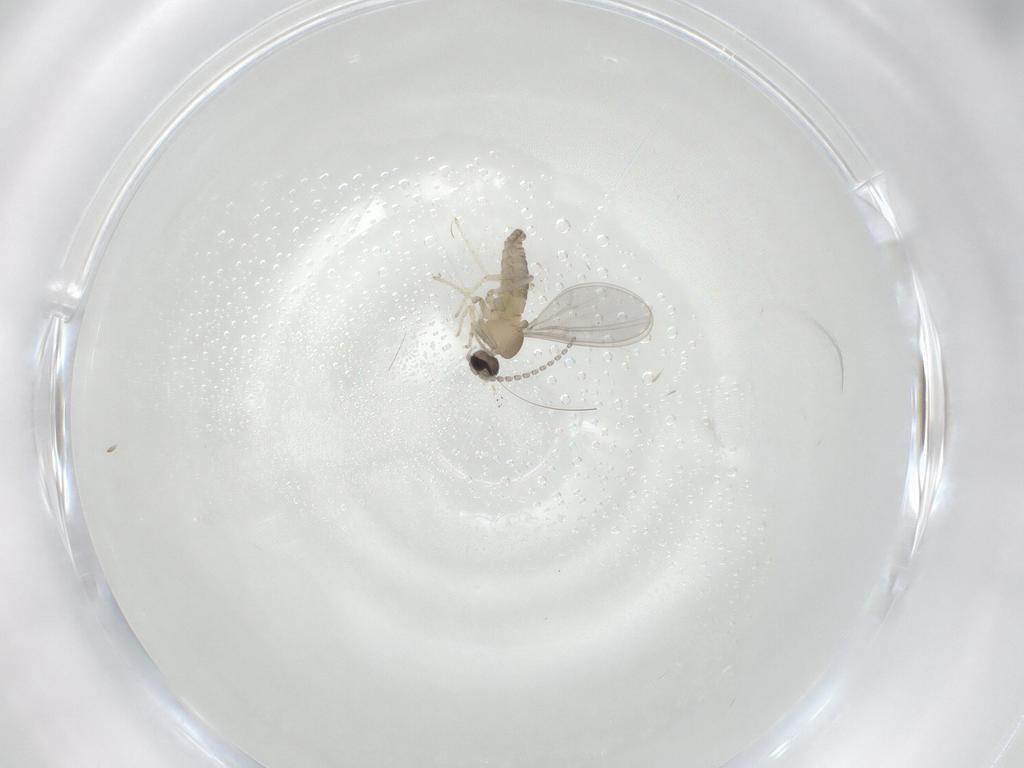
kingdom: Animalia
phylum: Arthropoda
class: Insecta
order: Diptera
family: Cecidomyiidae
